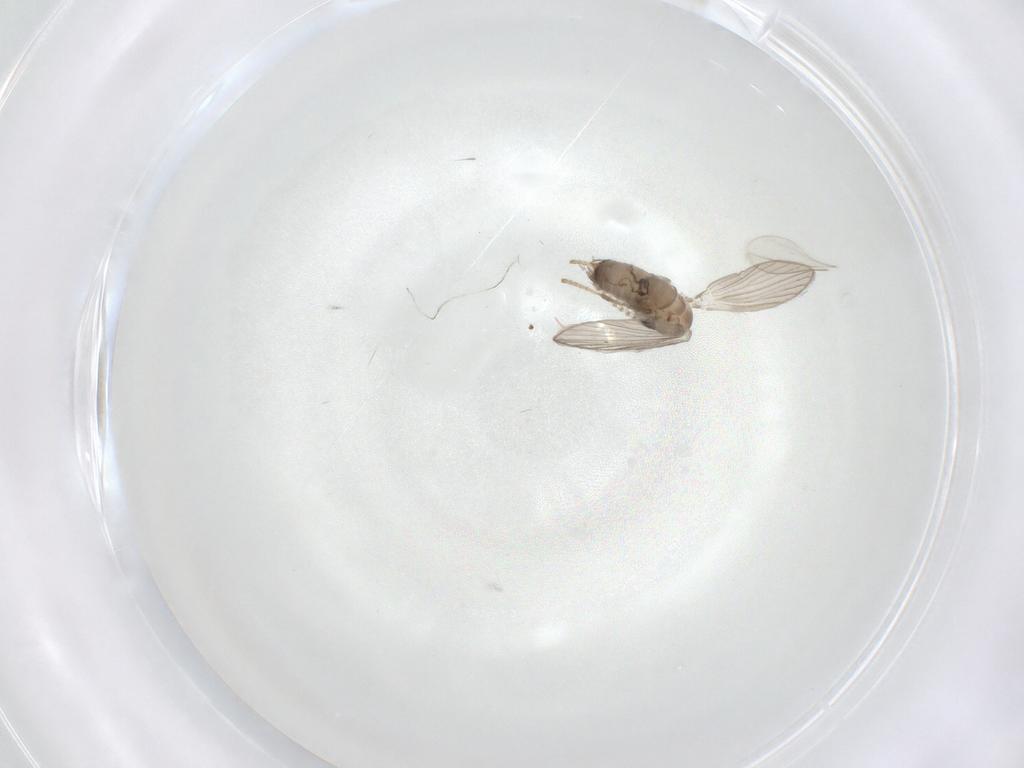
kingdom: Animalia
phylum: Arthropoda
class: Insecta
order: Diptera
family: Psychodidae
